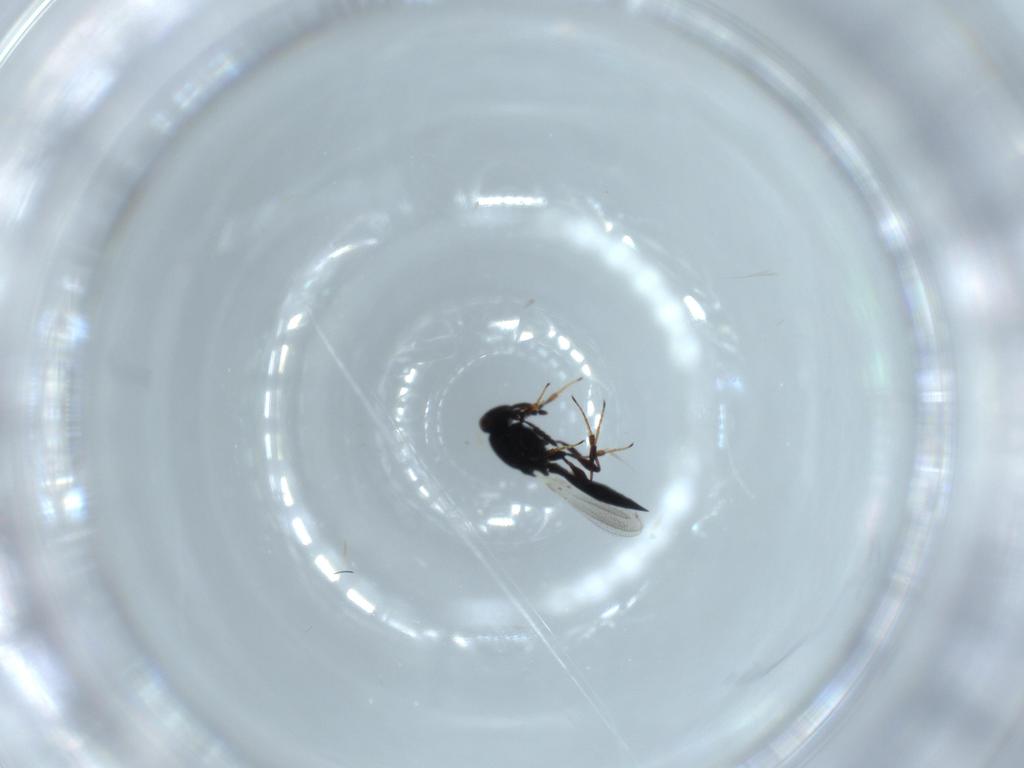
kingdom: Animalia
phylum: Arthropoda
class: Insecta
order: Hymenoptera
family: Platygastridae
